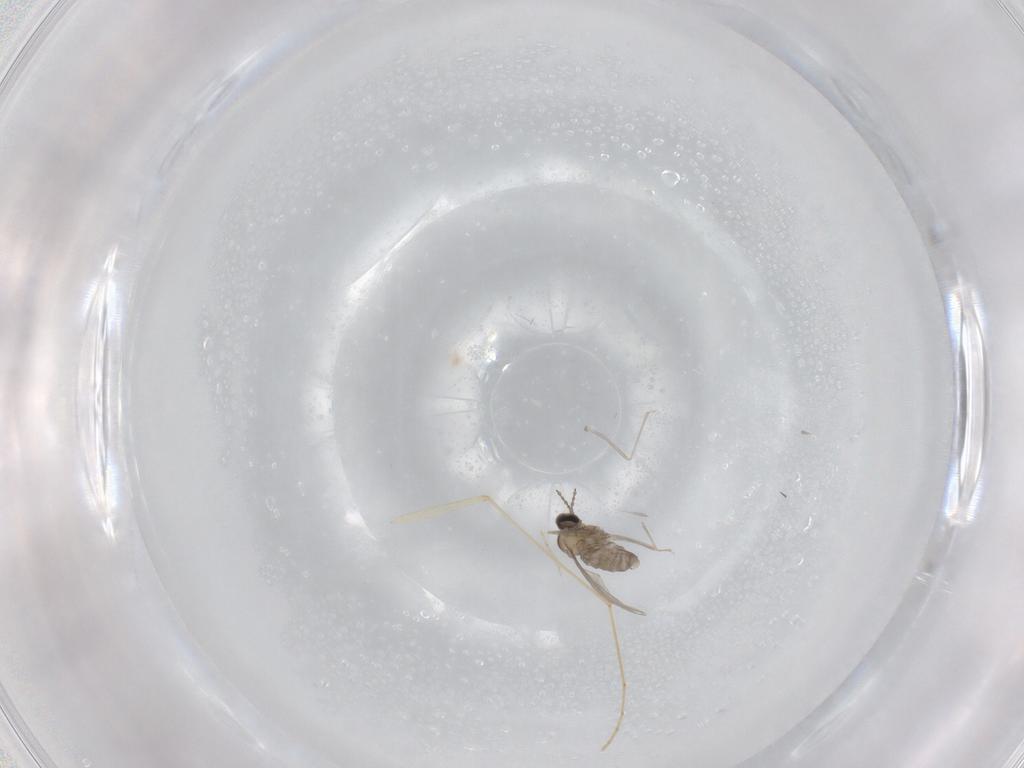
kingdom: Animalia
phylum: Arthropoda
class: Insecta
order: Diptera
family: Cecidomyiidae
